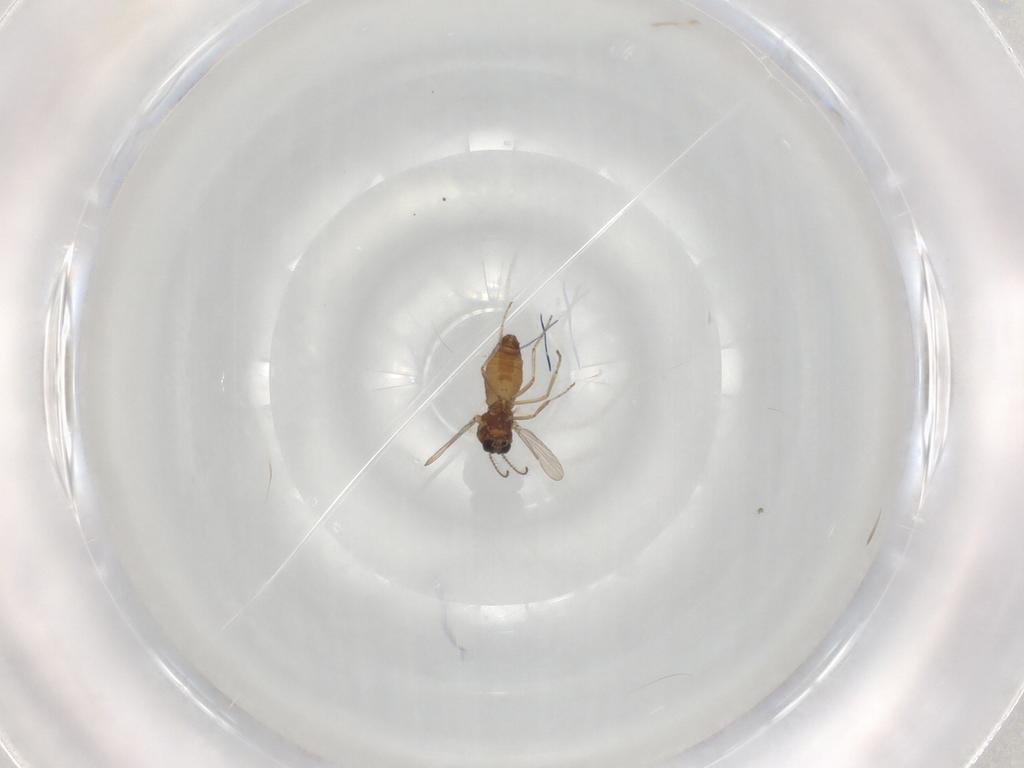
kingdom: Animalia
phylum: Arthropoda
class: Insecta
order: Diptera
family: Ceratopogonidae
